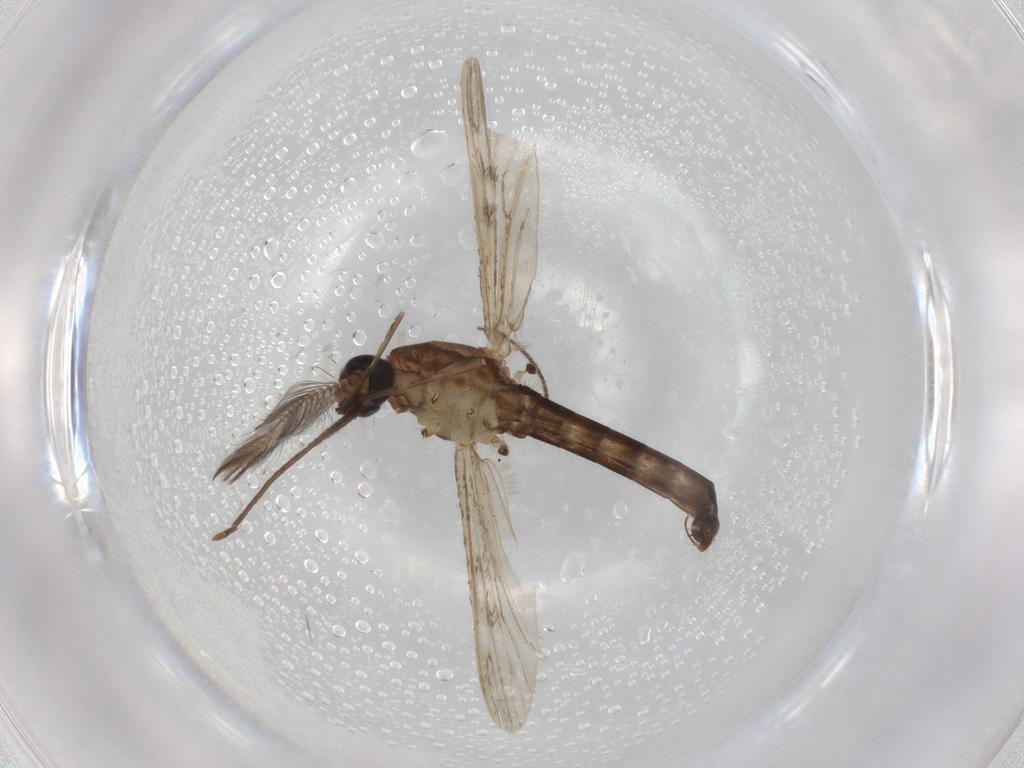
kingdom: Animalia
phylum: Arthropoda
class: Insecta
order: Diptera
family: Cecidomyiidae
